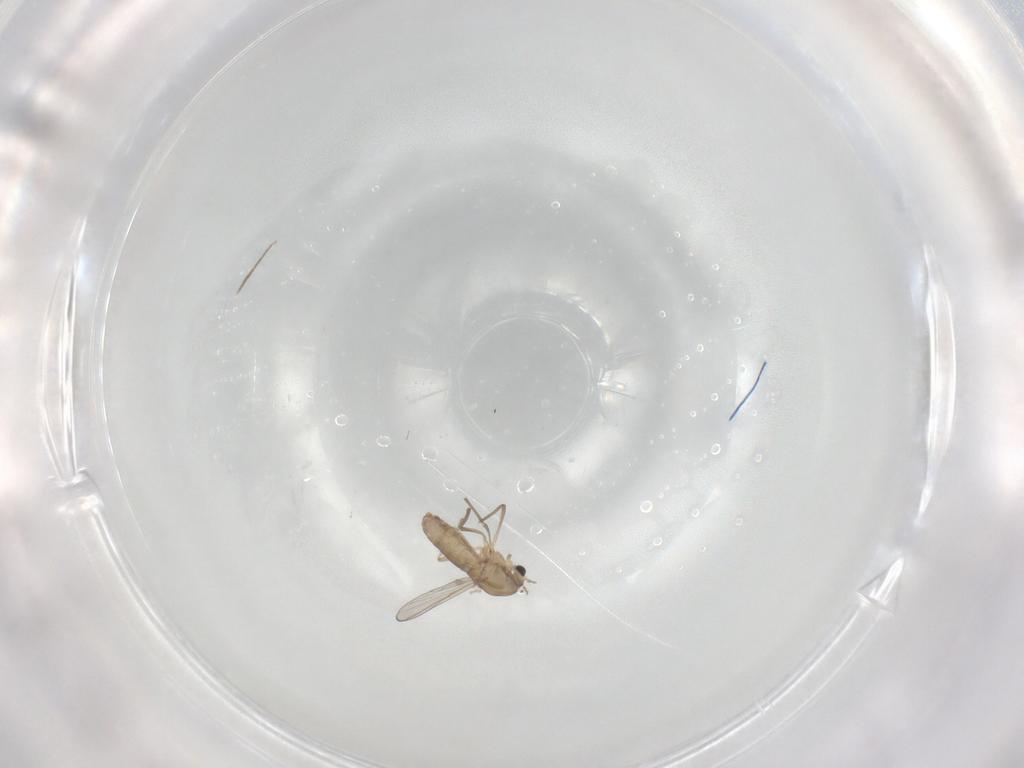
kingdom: Animalia
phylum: Arthropoda
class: Insecta
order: Diptera
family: Chironomidae
